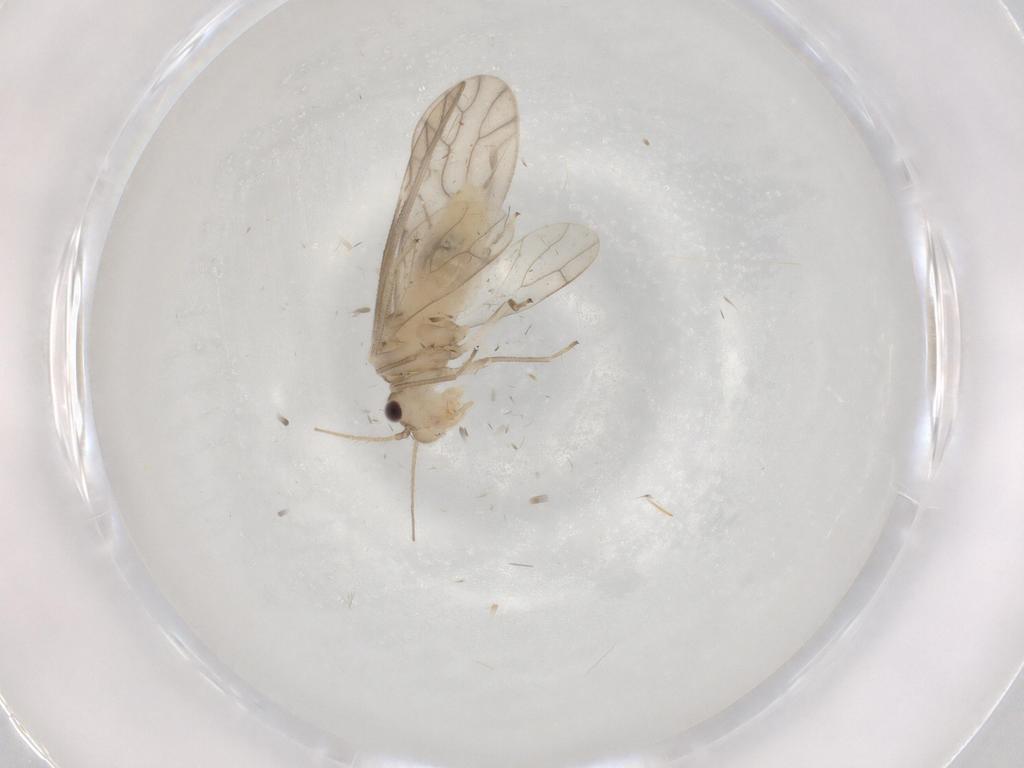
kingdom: Animalia
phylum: Arthropoda
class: Insecta
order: Psocodea
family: Caeciliusidae
